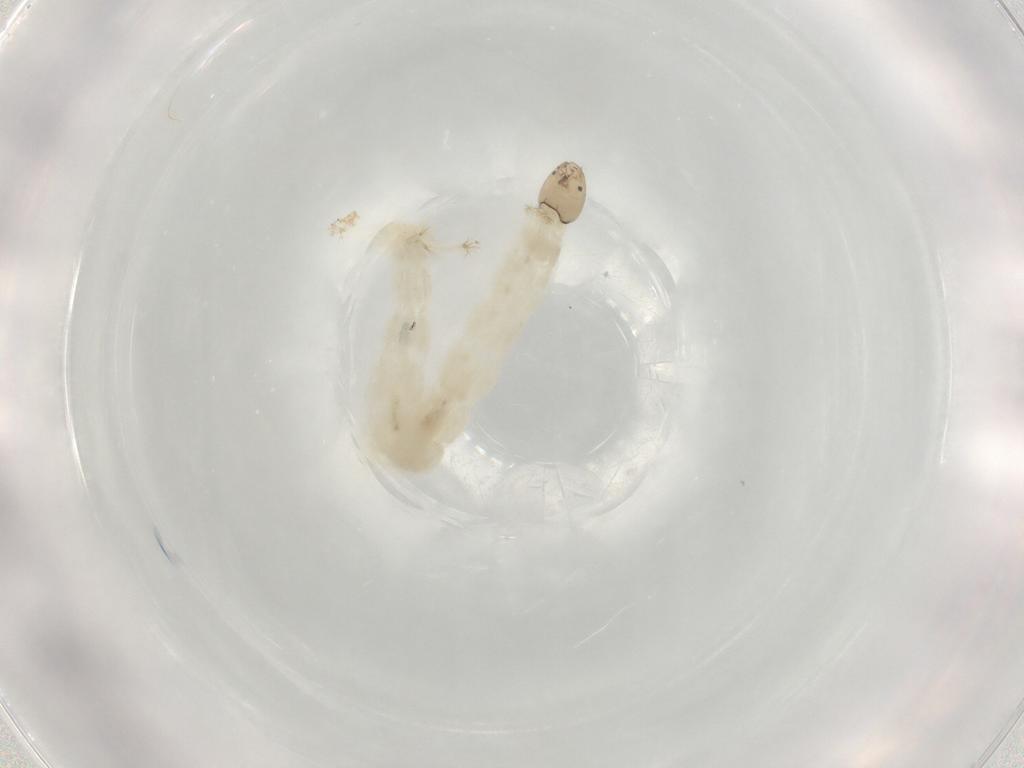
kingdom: Animalia
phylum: Arthropoda
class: Insecta
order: Diptera
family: Chironomidae
